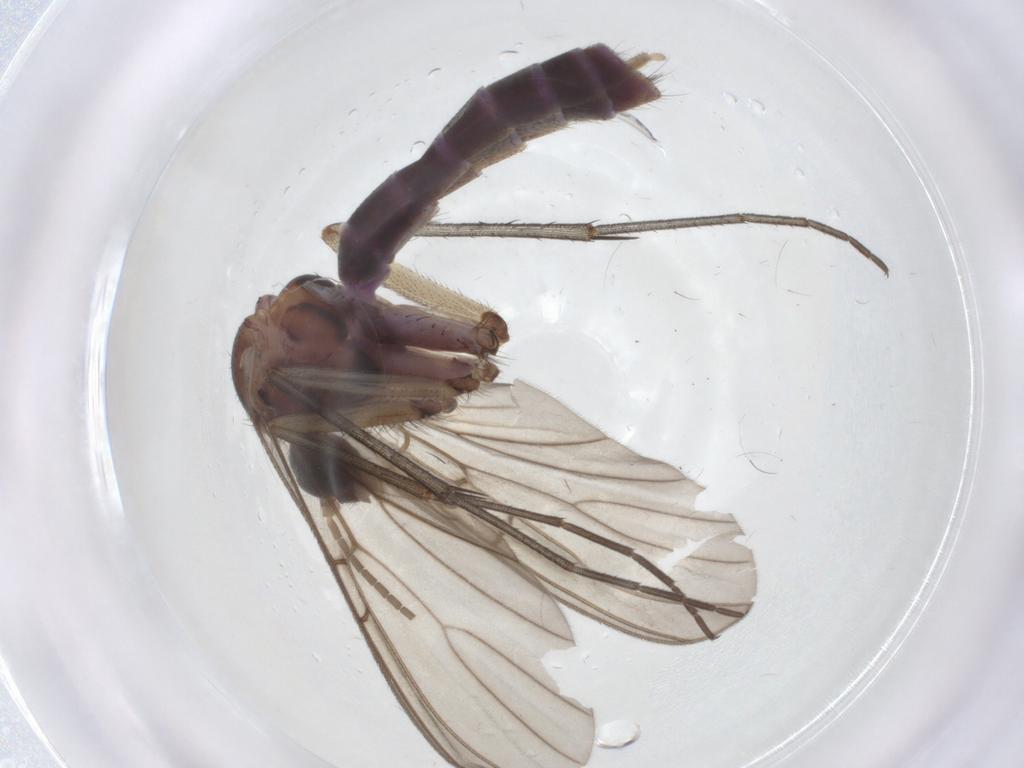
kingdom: Animalia
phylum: Arthropoda
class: Insecta
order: Diptera
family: Mycetophilidae
